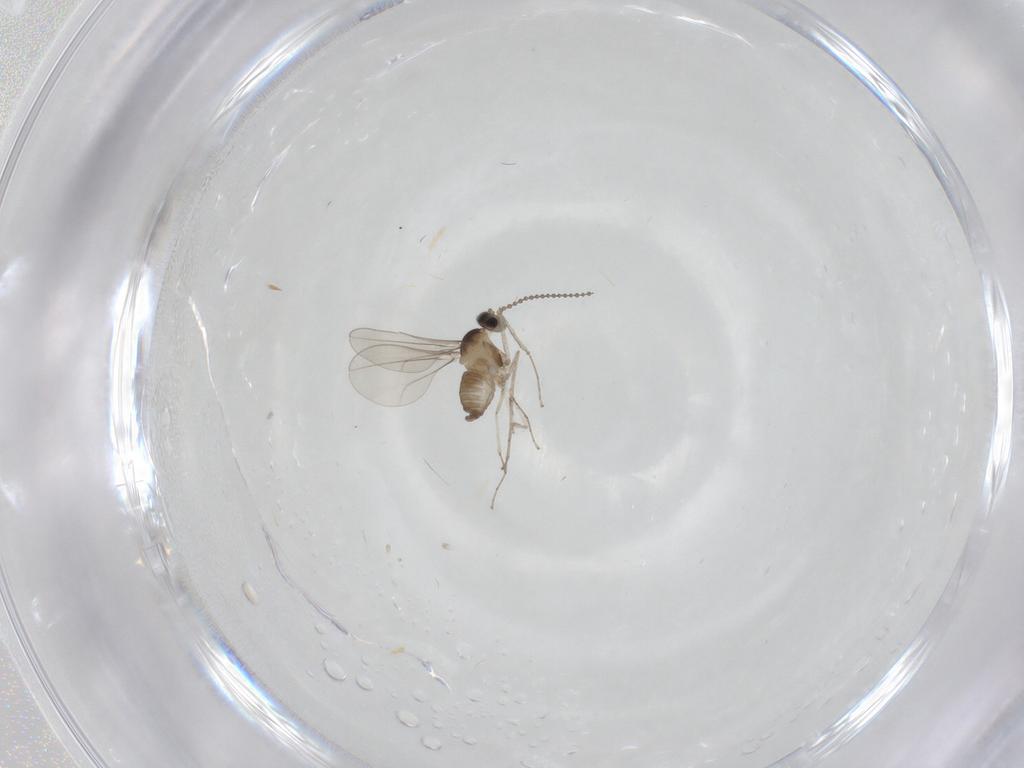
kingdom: Animalia
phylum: Arthropoda
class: Insecta
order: Diptera
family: Cecidomyiidae
